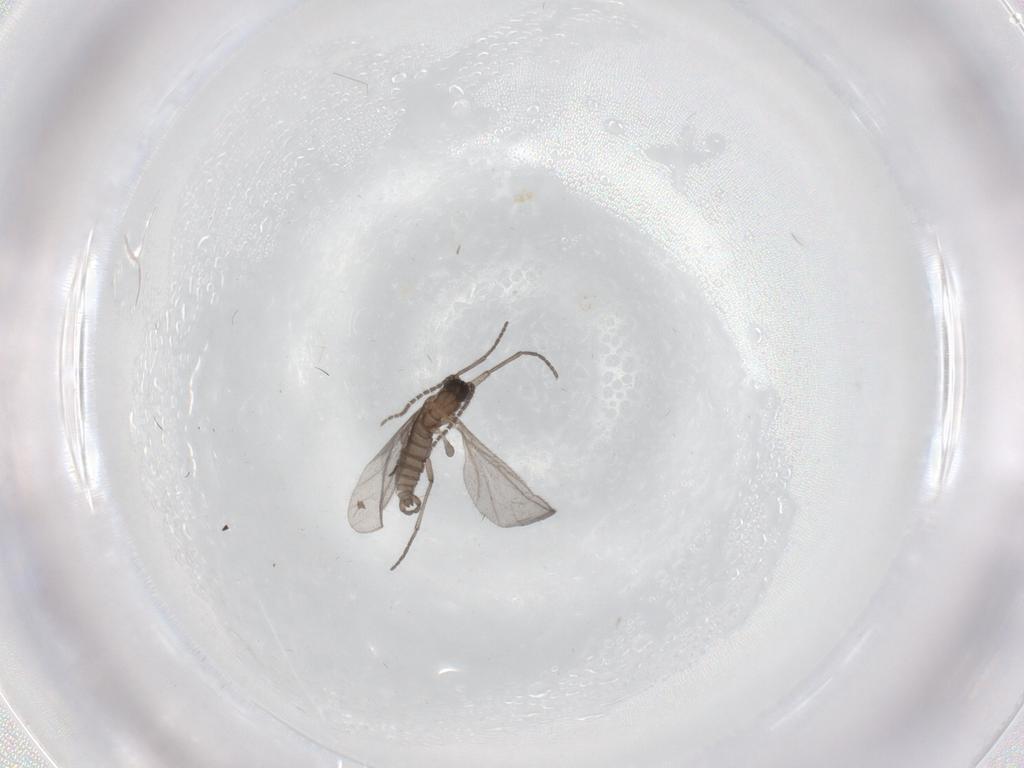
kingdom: Animalia
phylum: Arthropoda
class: Insecta
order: Diptera
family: Sciaridae
